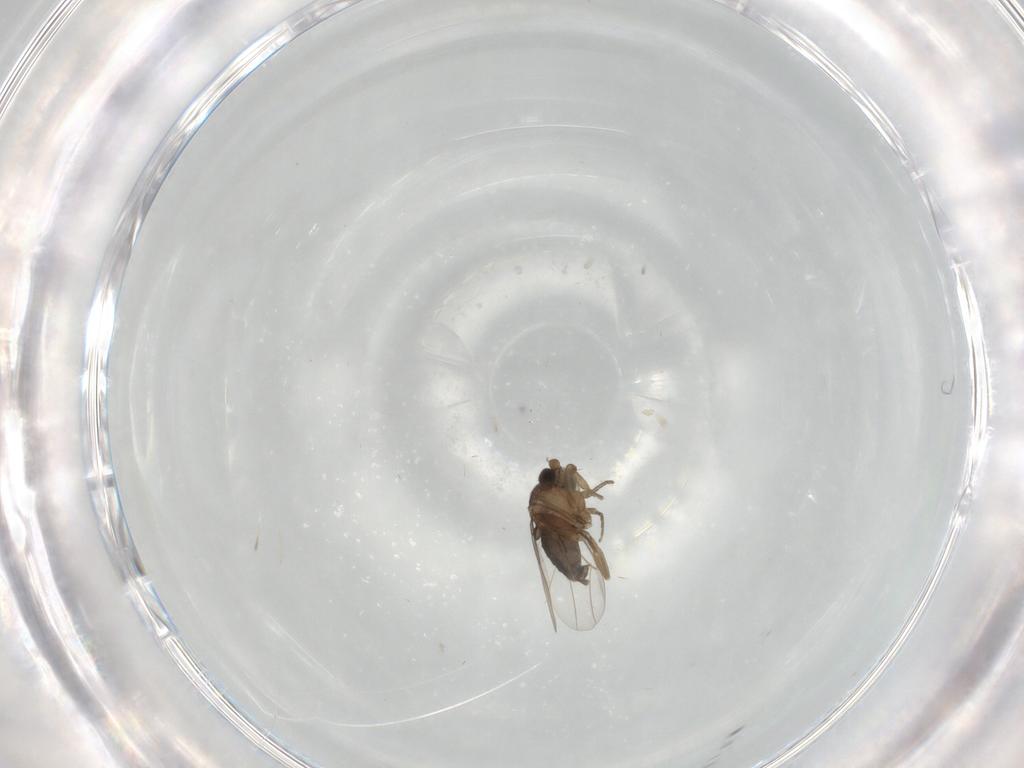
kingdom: Animalia
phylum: Arthropoda
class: Insecta
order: Diptera
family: Phoridae
